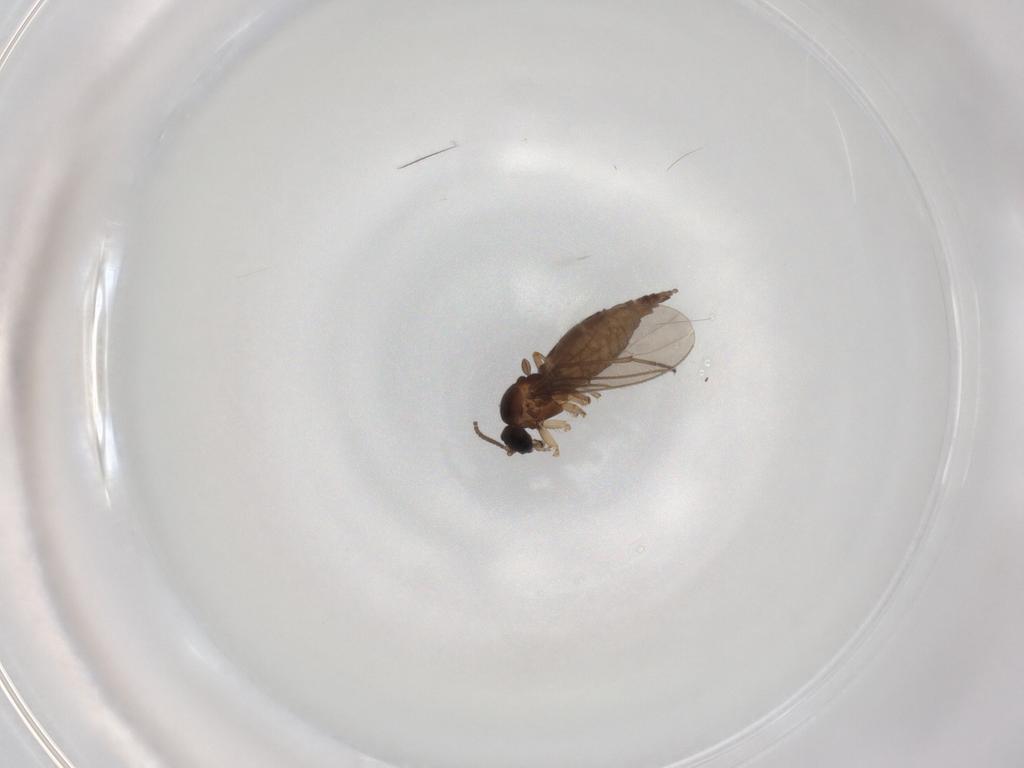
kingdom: Animalia
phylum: Arthropoda
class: Insecta
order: Diptera
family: Sciaridae
